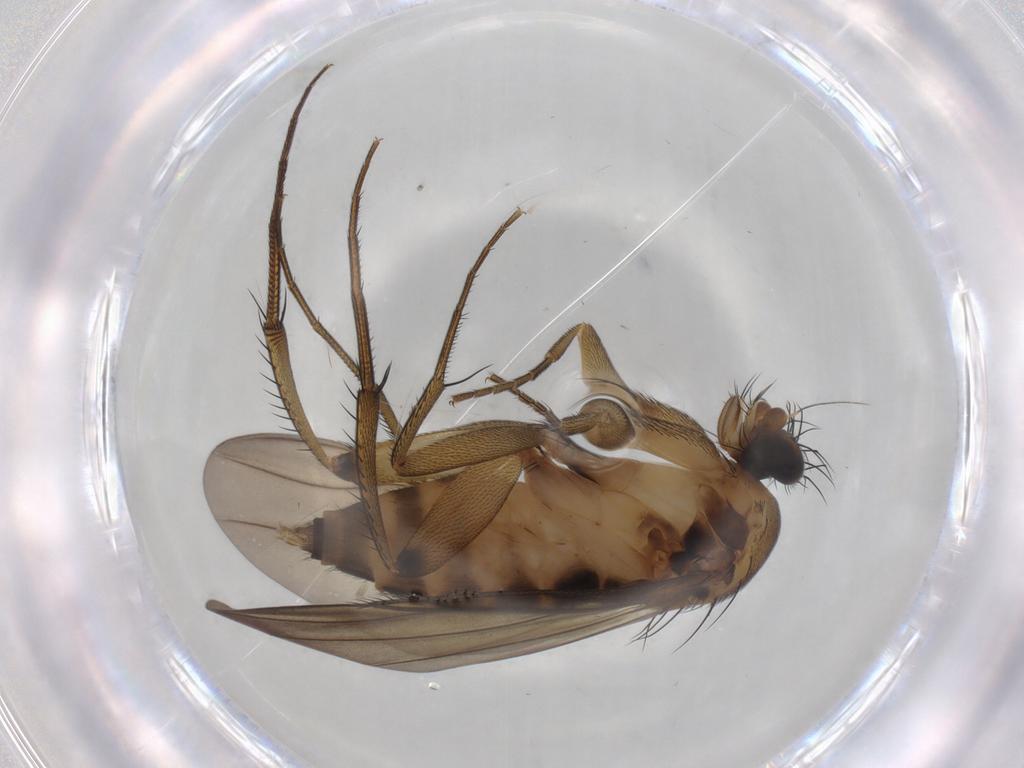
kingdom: Animalia
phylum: Arthropoda
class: Insecta
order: Diptera
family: Phoridae
